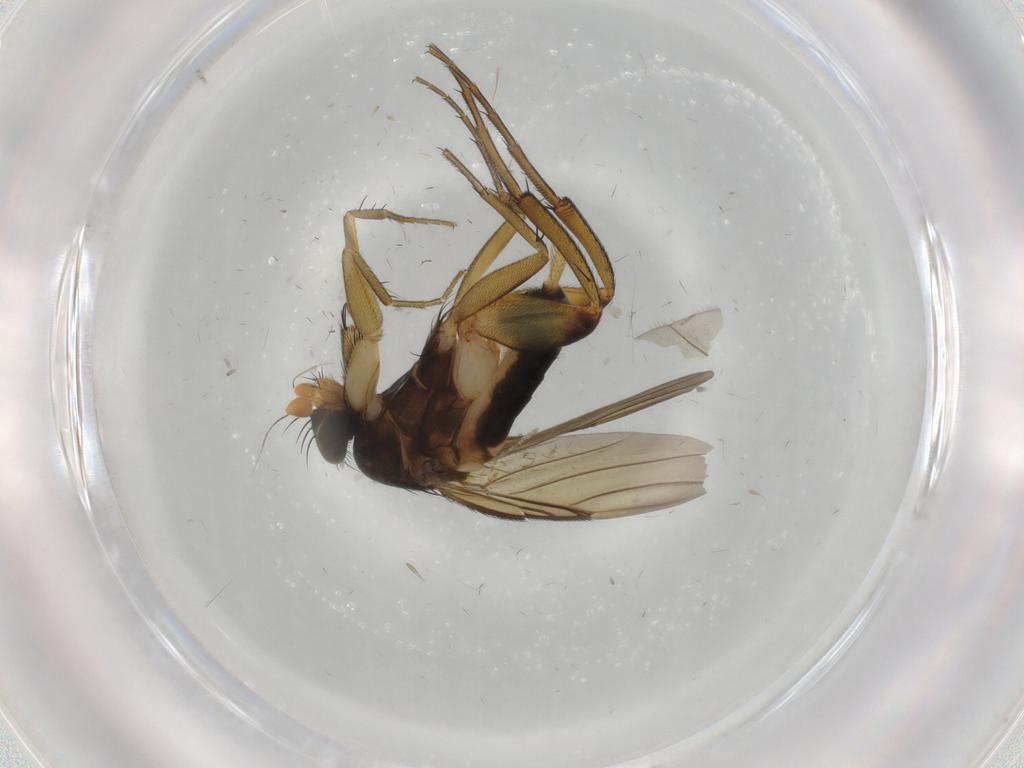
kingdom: Animalia
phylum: Arthropoda
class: Insecta
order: Diptera
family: Phoridae
